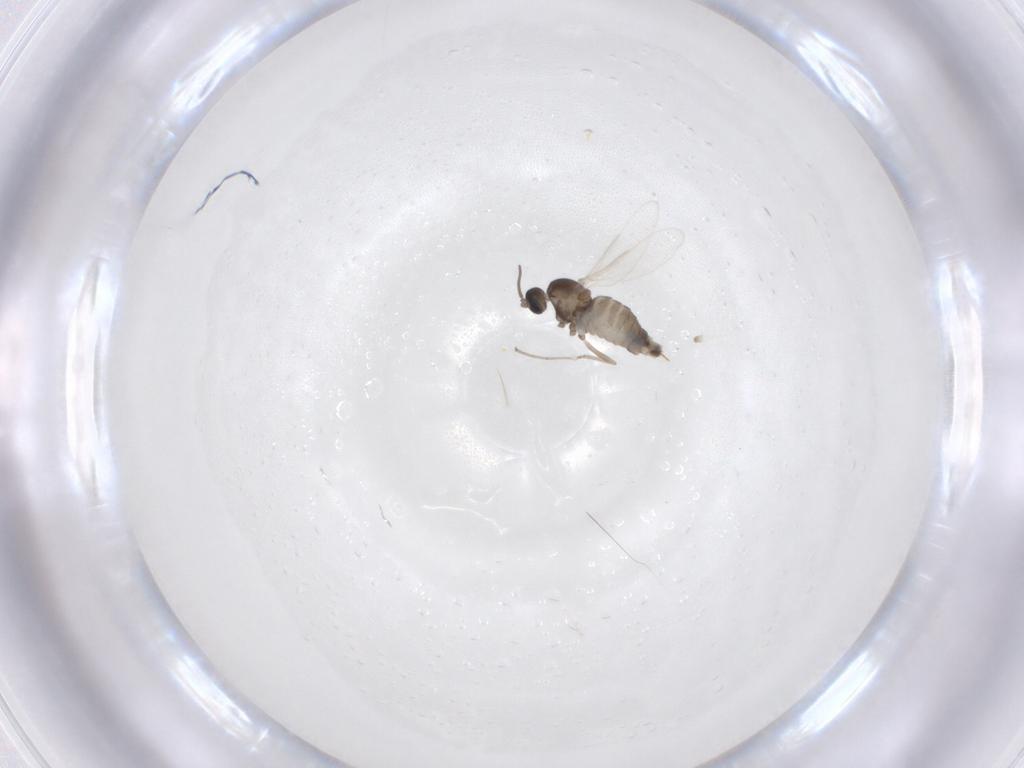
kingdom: Animalia
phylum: Arthropoda
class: Insecta
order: Diptera
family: Cecidomyiidae
